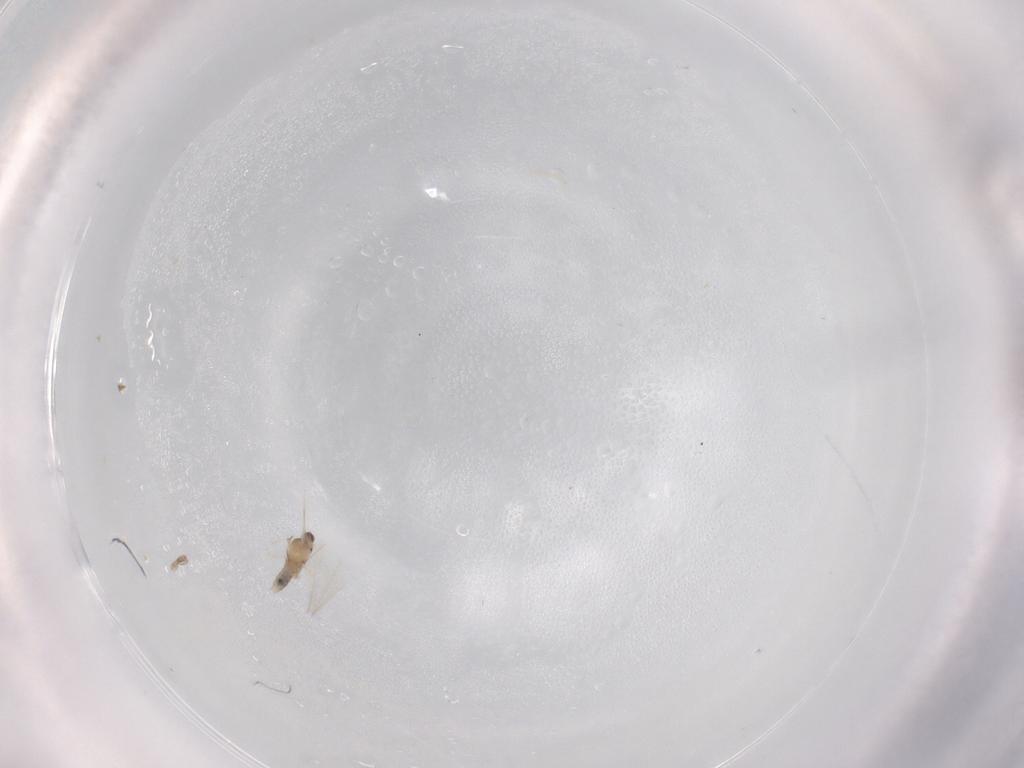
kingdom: Animalia
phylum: Arthropoda
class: Insecta
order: Diptera
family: Cecidomyiidae
